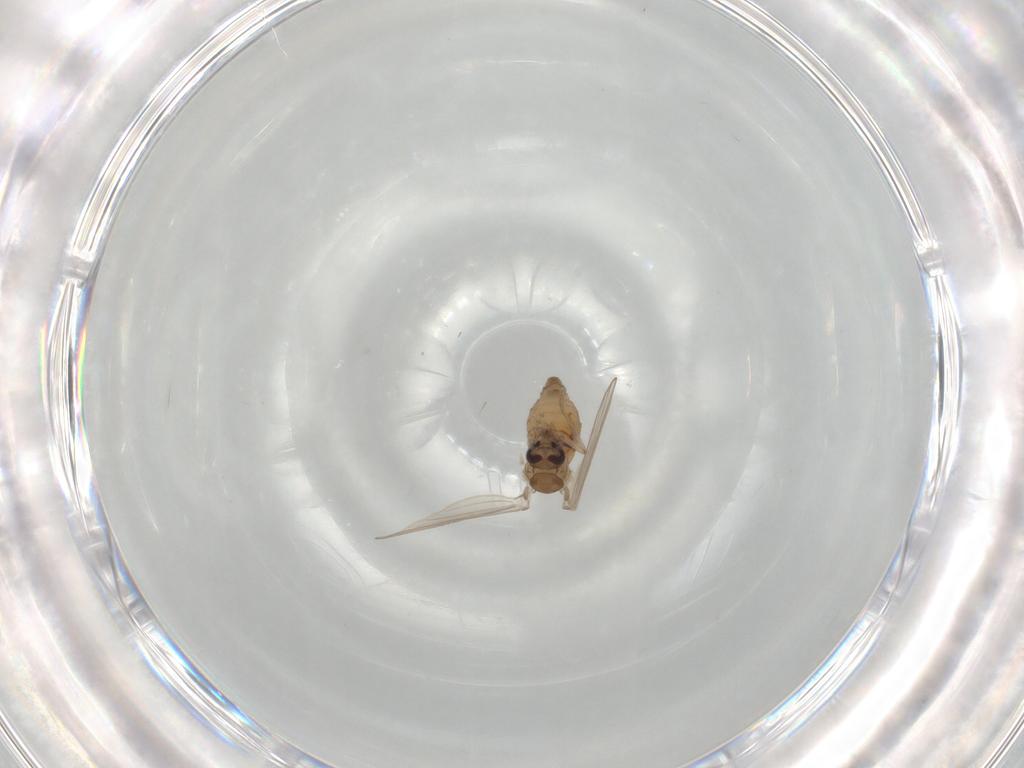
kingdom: Animalia
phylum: Arthropoda
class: Insecta
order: Diptera
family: Psychodidae
